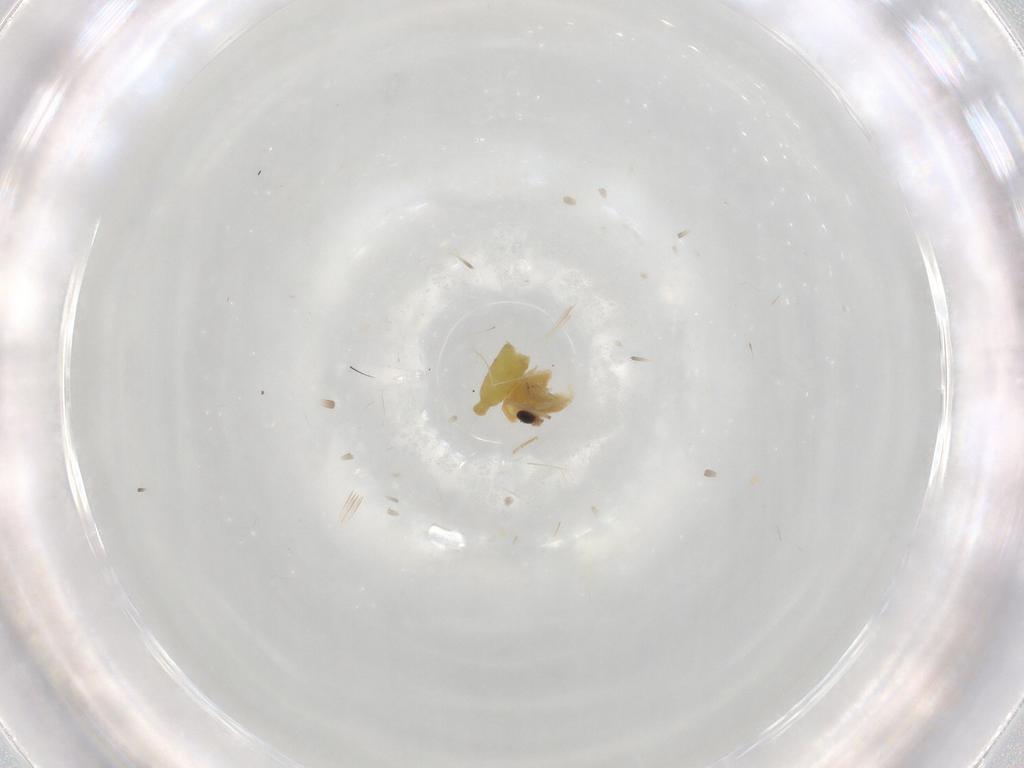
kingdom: Animalia
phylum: Arthropoda
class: Insecta
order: Diptera
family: Chironomidae
